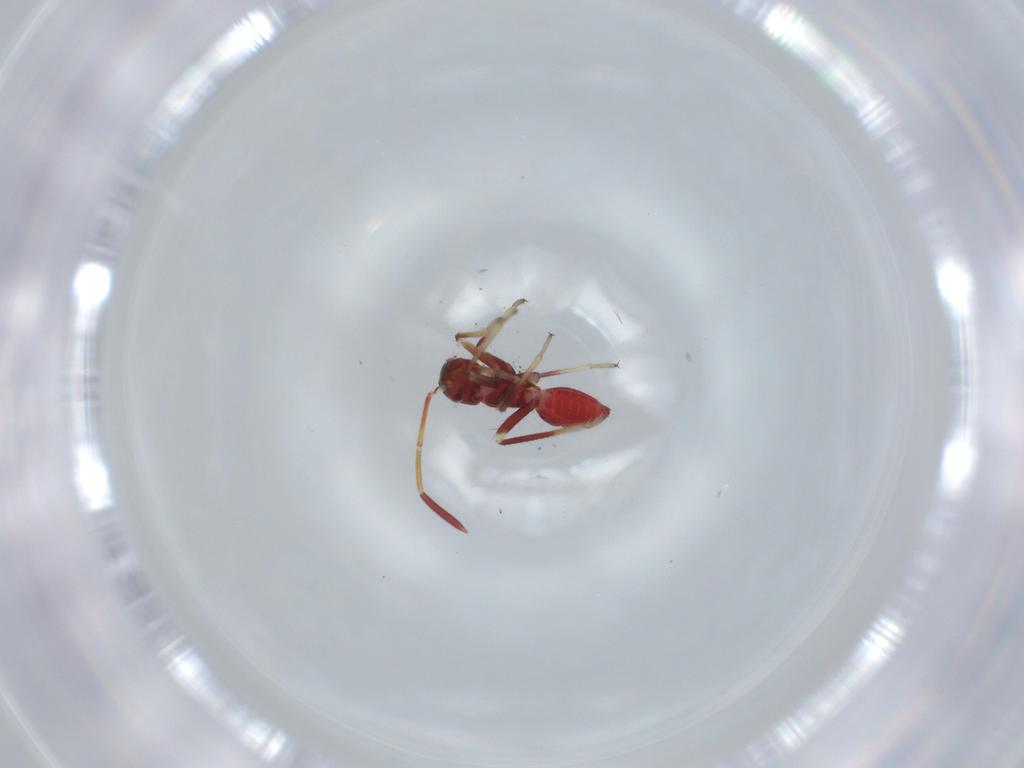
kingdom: Animalia
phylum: Arthropoda
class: Insecta
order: Hemiptera
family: Miridae
